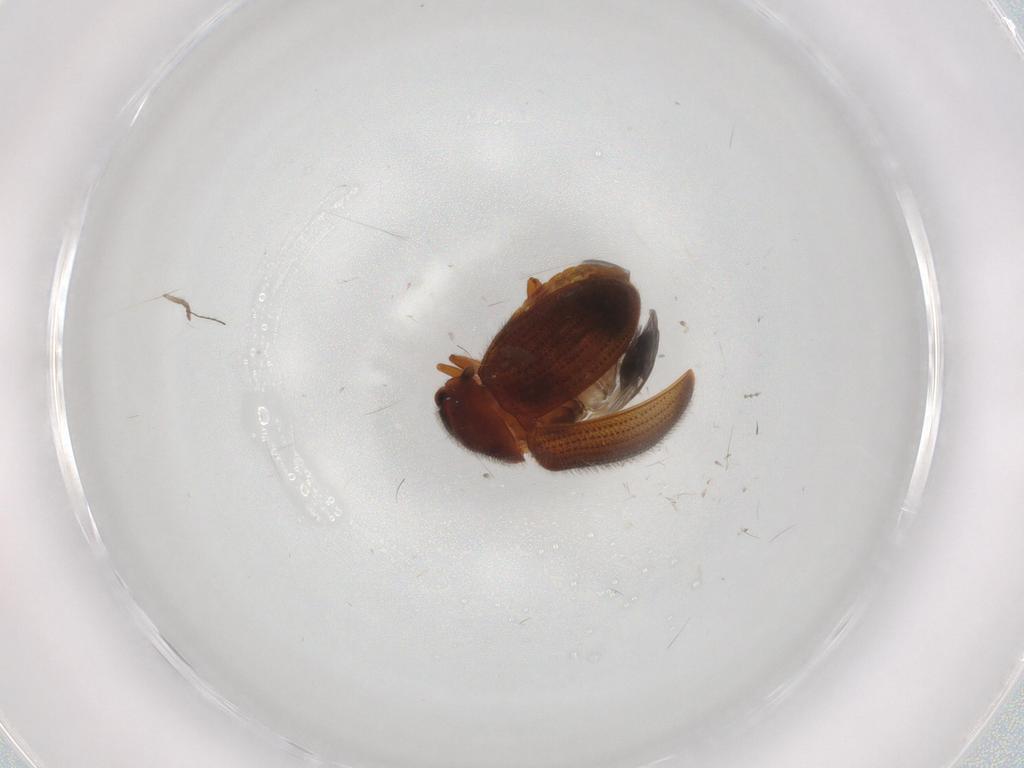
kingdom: Animalia
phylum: Arthropoda
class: Insecta
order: Coleoptera
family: Sphindidae
